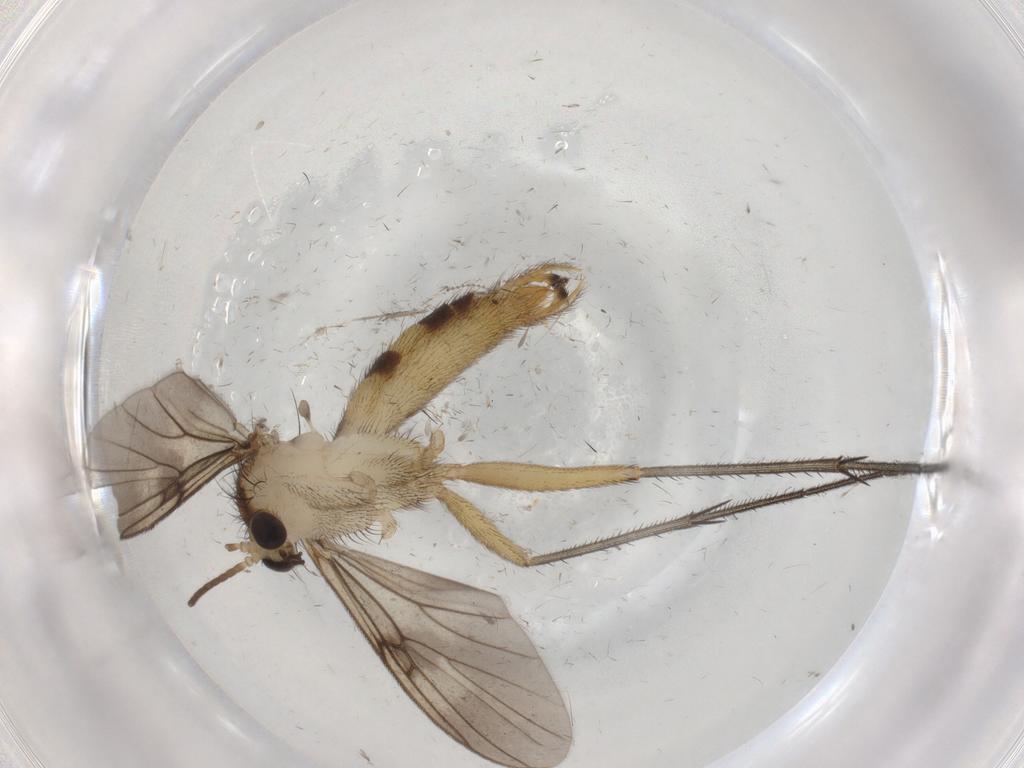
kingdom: Animalia
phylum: Arthropoda
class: Insecta
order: Diptera
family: Mycetophilidae
